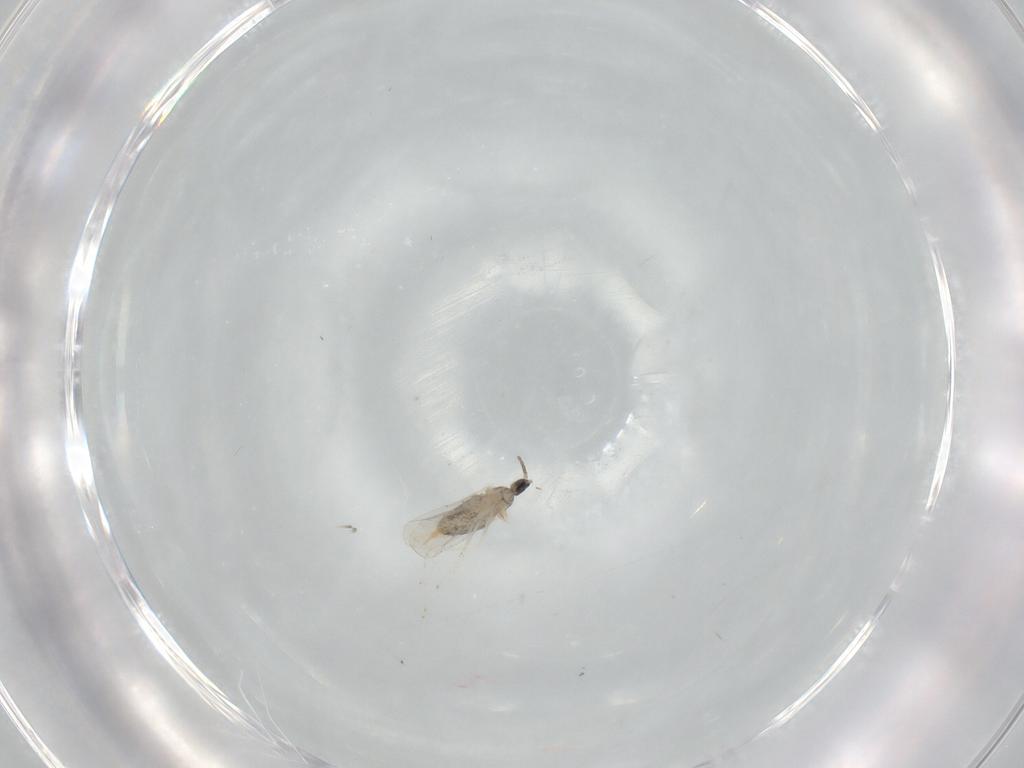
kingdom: Animalia
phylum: Arthropoda
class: Insecta
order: Diptera
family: Cecidomyiidae
